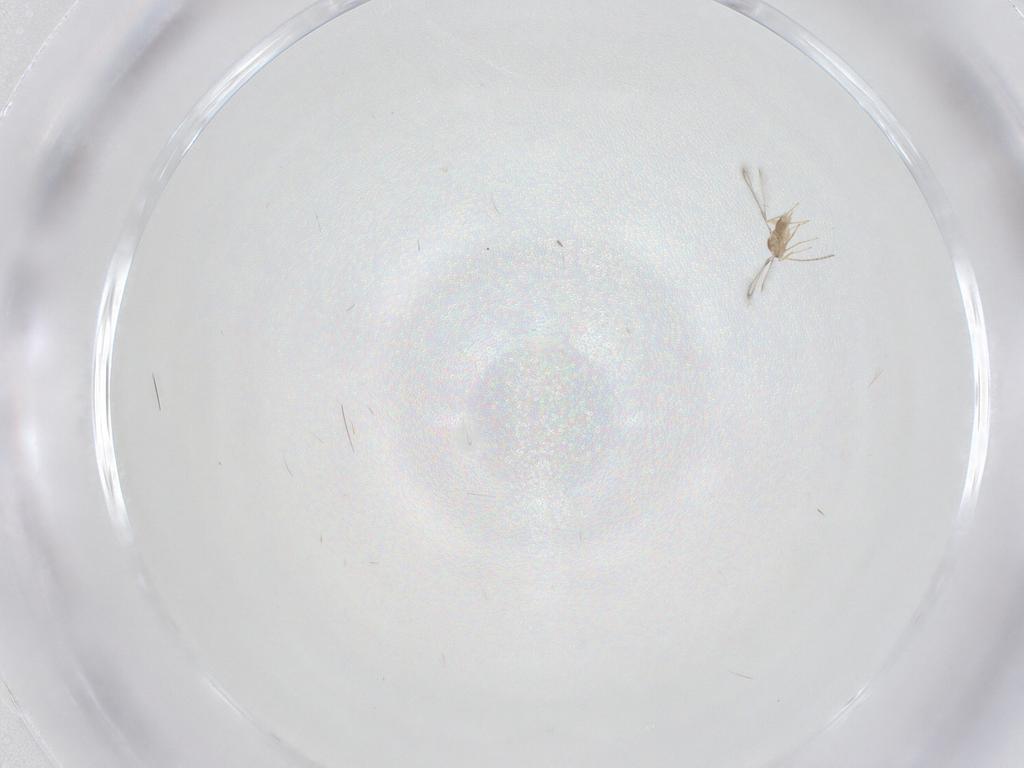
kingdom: Animalia
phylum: Arthropoda
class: Insecta
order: Hymenoptera
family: Mymaridae
